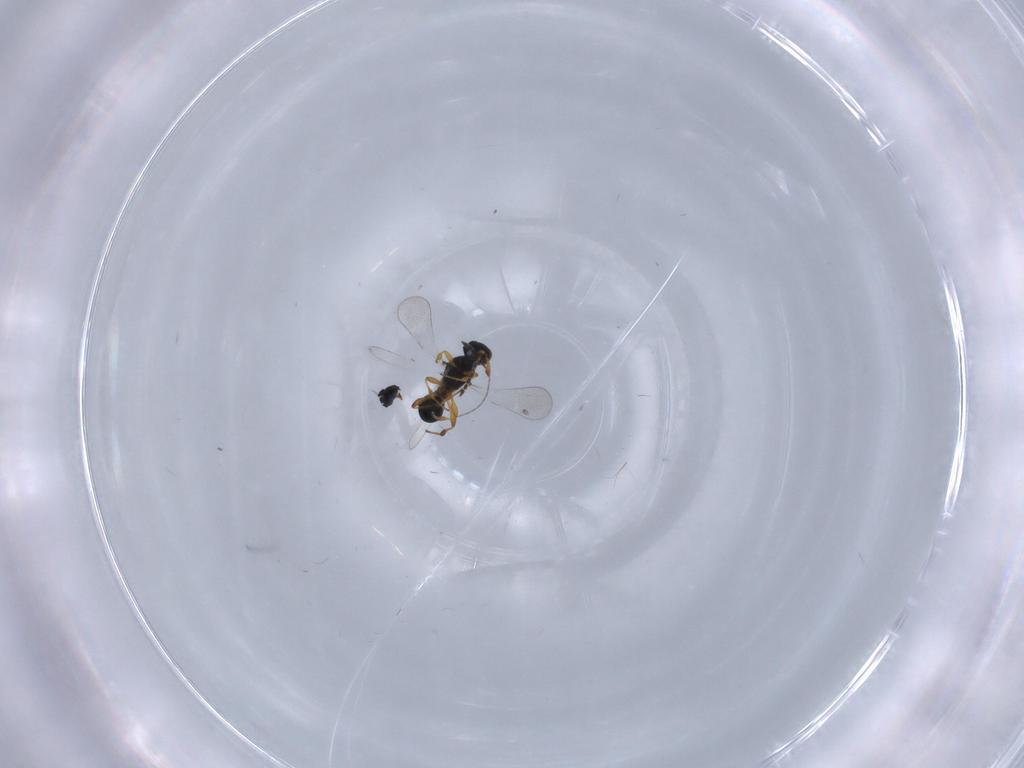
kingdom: Animalia
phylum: Arthropoda
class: Insecta
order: Hymenoptera
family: Platygastridae
